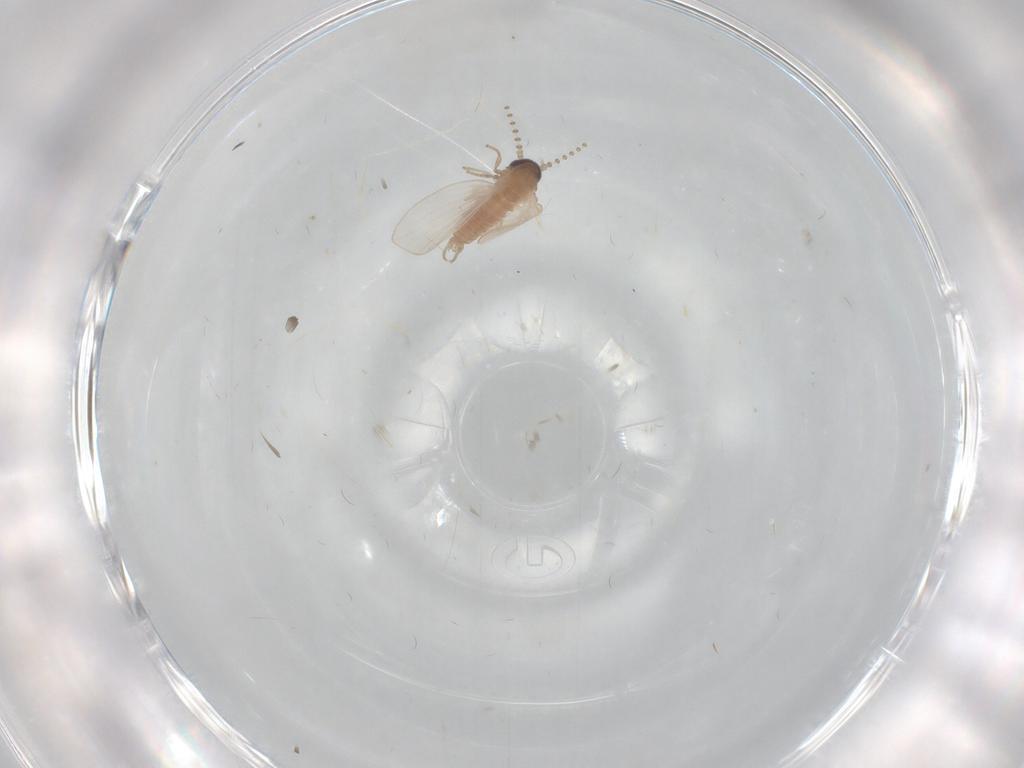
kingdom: Animalia
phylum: Arthropoda
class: Insecta
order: Diptera
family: Psychodidae
